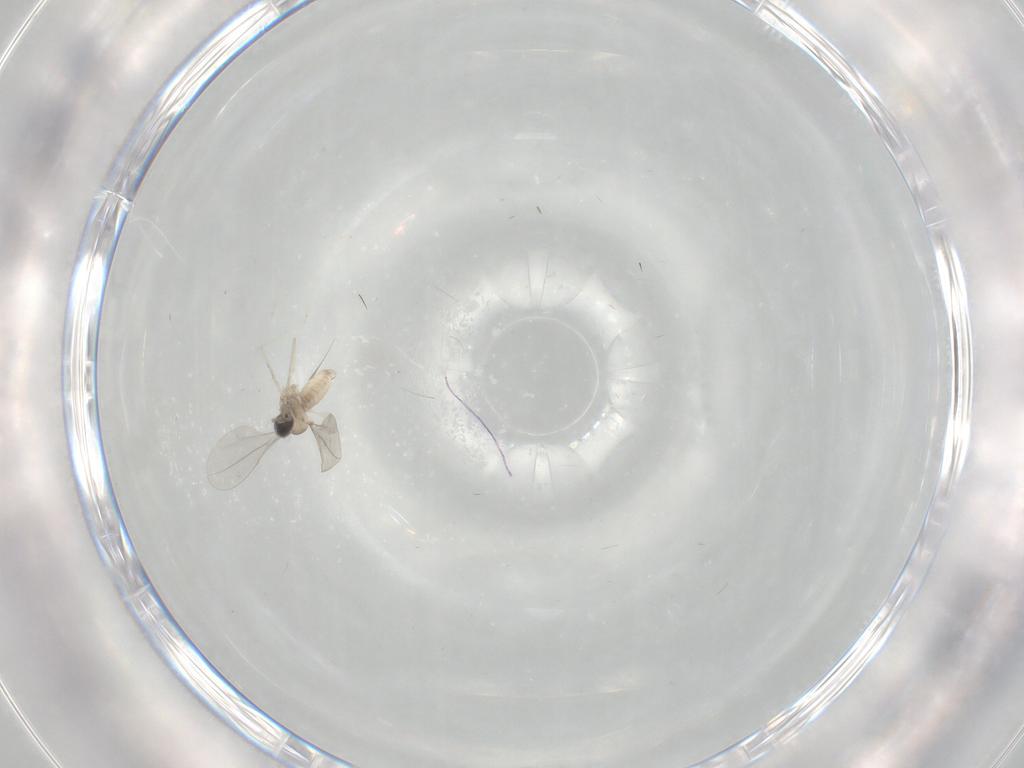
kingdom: Animalia
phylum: Arthropoda
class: Insecta
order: Diptera
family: Cecidomyiidae
